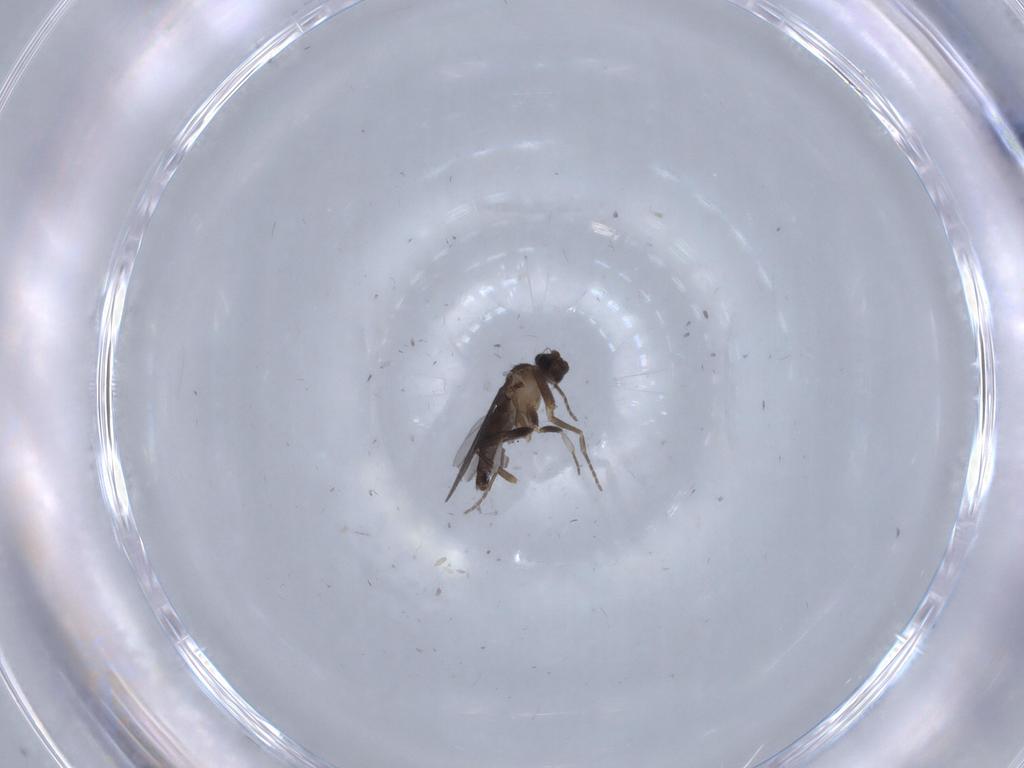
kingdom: Animalia
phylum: Arthropoda
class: Insecta
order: Diptera
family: Phoridae
